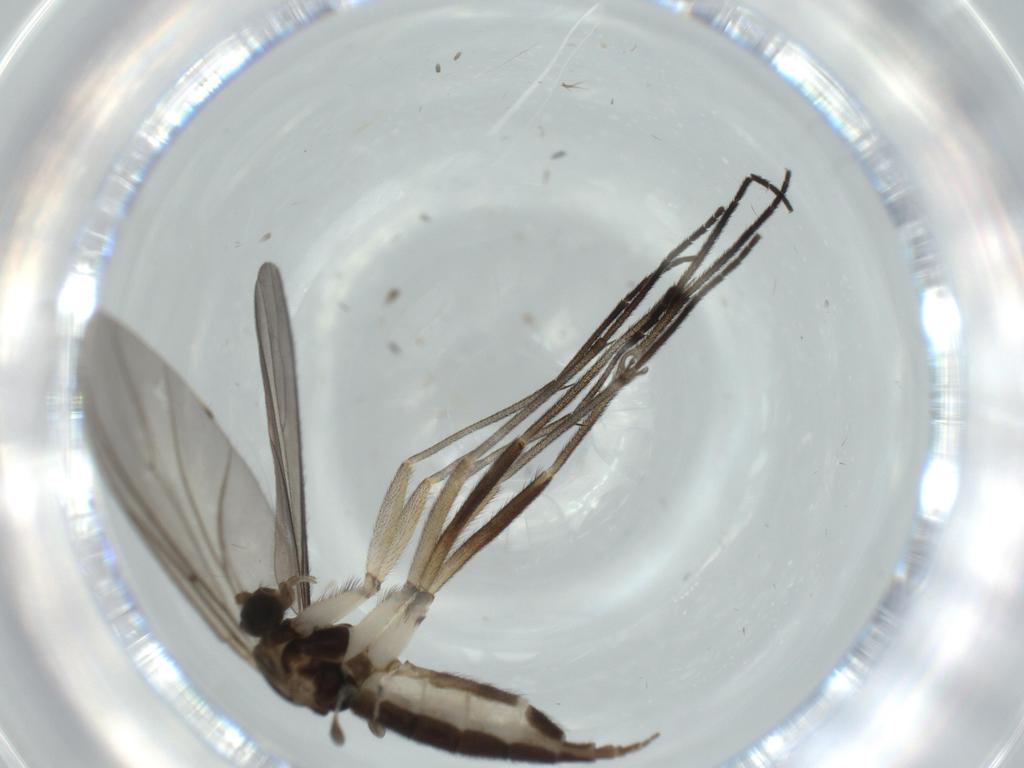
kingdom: Animalia
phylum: Arthropoda
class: Insecta
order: Diptera
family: Sciaridae
